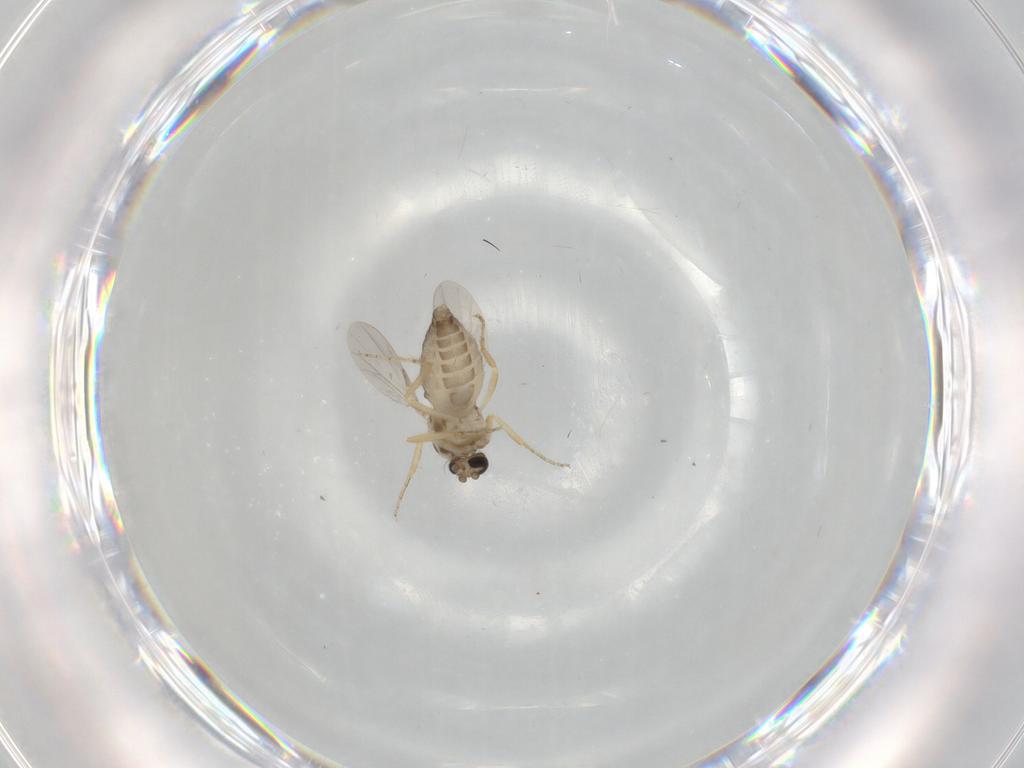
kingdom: Animalia
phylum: Arthropoda
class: Insecta
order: Diptera
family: Ceratopogonidae
